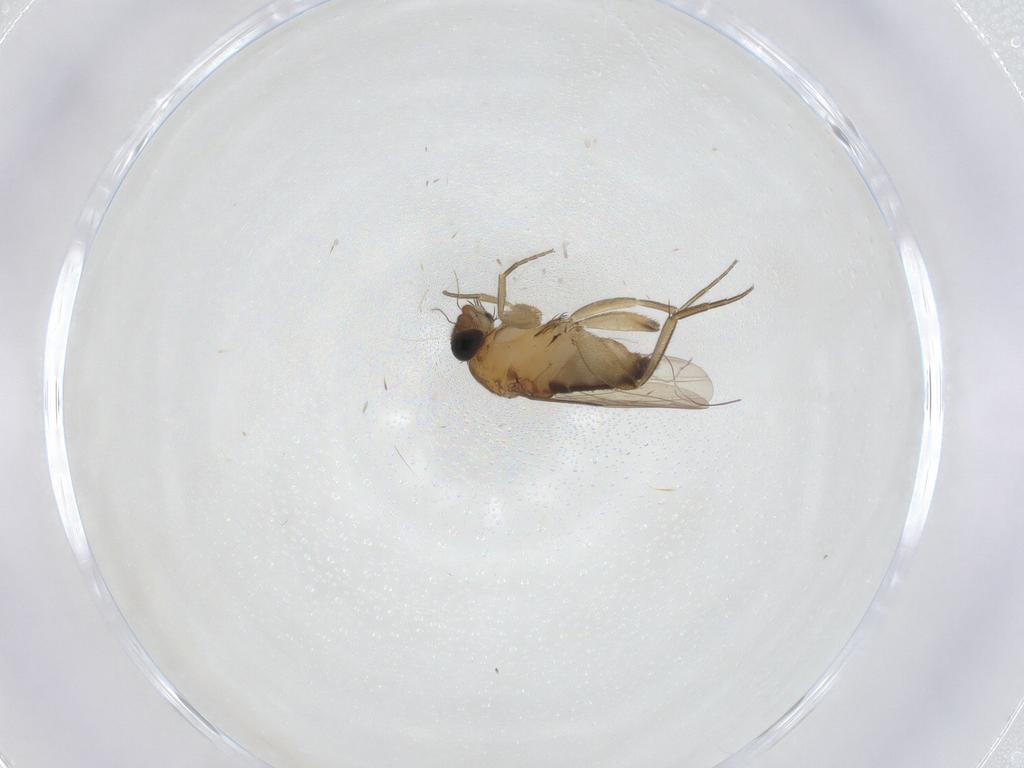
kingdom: Animalia
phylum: Arthropoda
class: Insecta
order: Diptera
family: Phoridae
